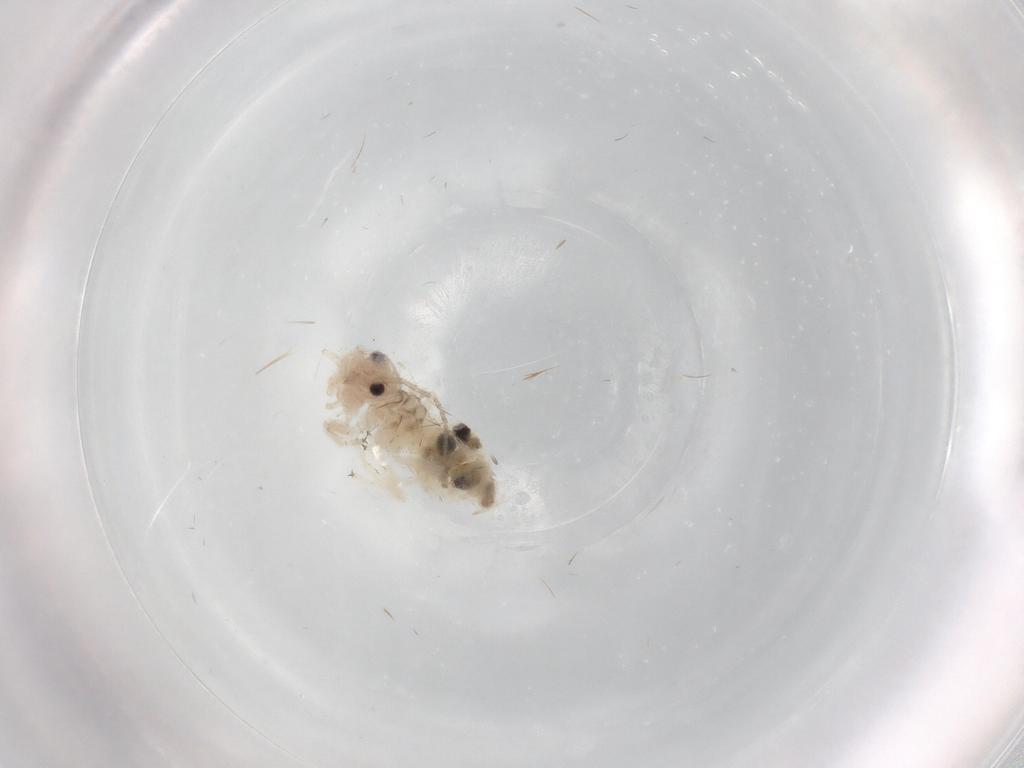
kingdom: Animalia
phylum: Arthropoda
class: Insecta
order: Psocodea
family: Amphipsocidae
